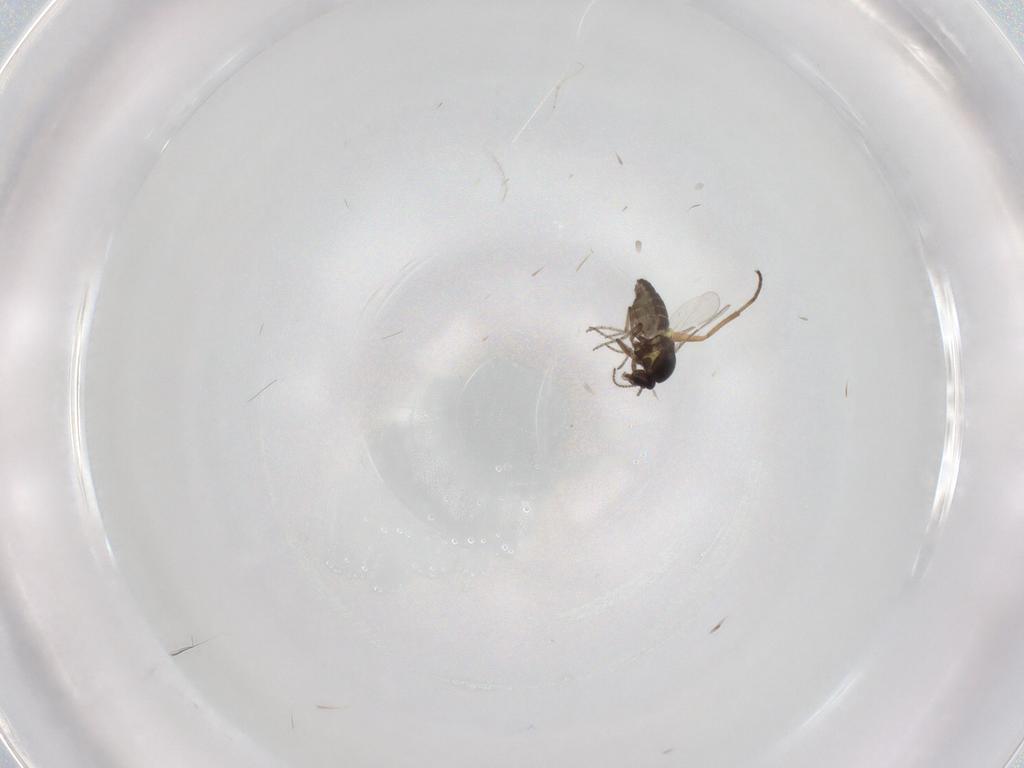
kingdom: Animalia
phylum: Arthropoda
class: Insecta
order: Diptera
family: Ceratopogonidae
